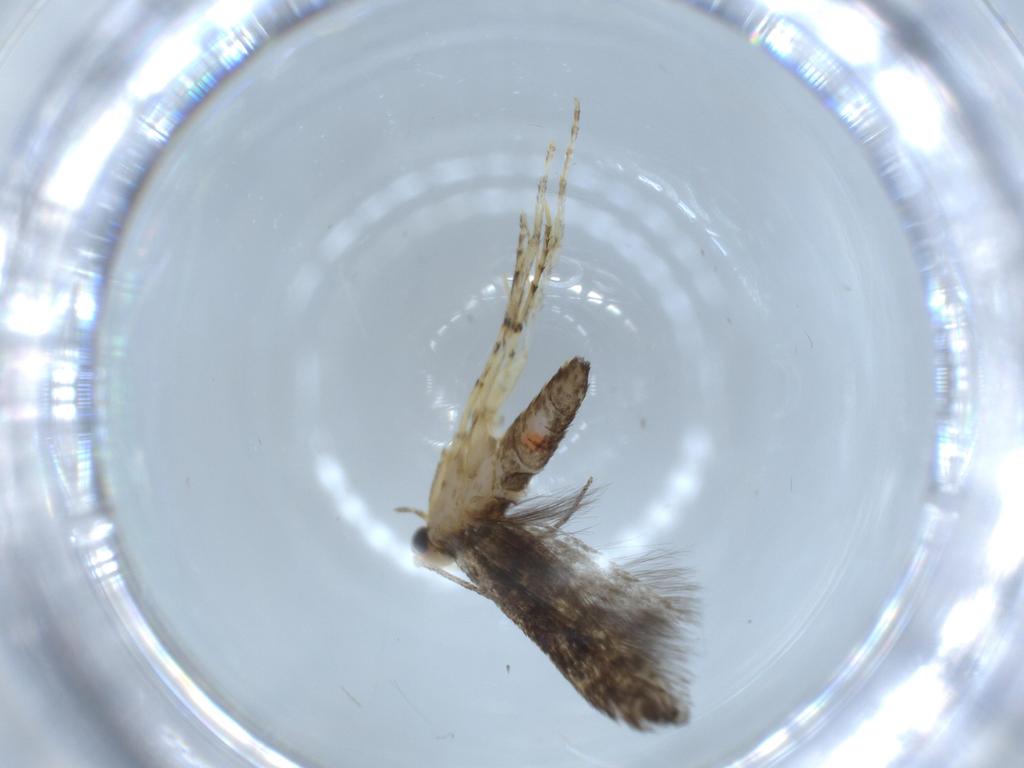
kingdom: Animalia
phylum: Arthropoda
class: Insecta
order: Lepidoptera
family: Argyresthiidae
